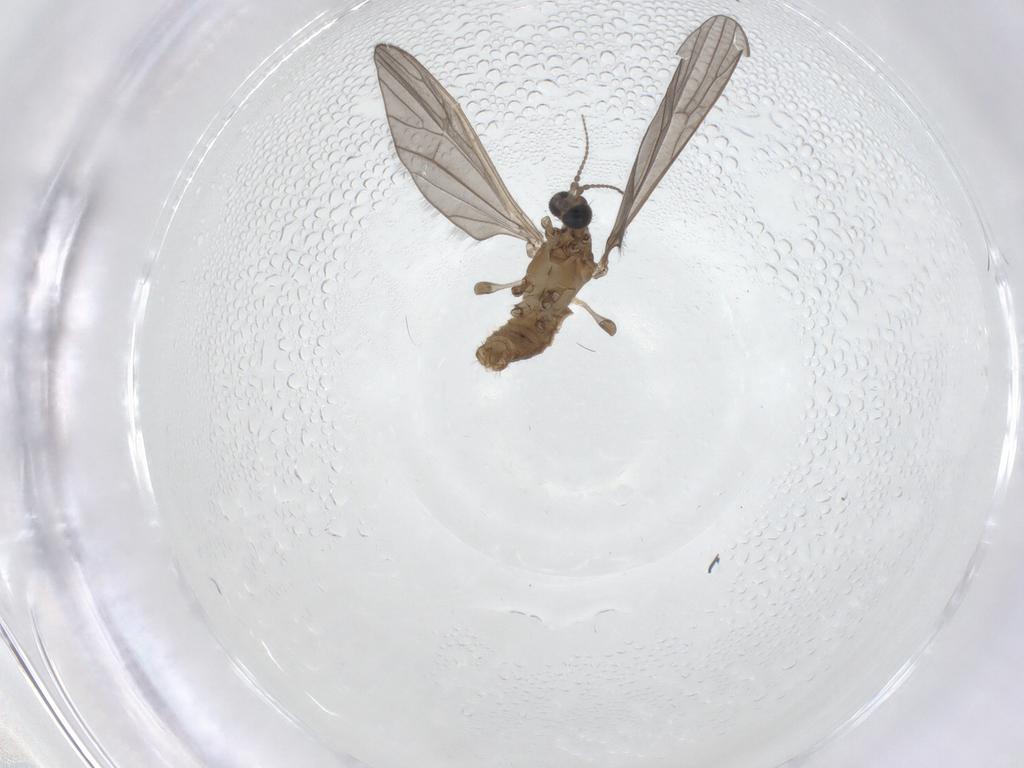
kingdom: Animalia
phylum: Arthropoda
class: Insecta
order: Diptera
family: Limoniidae
